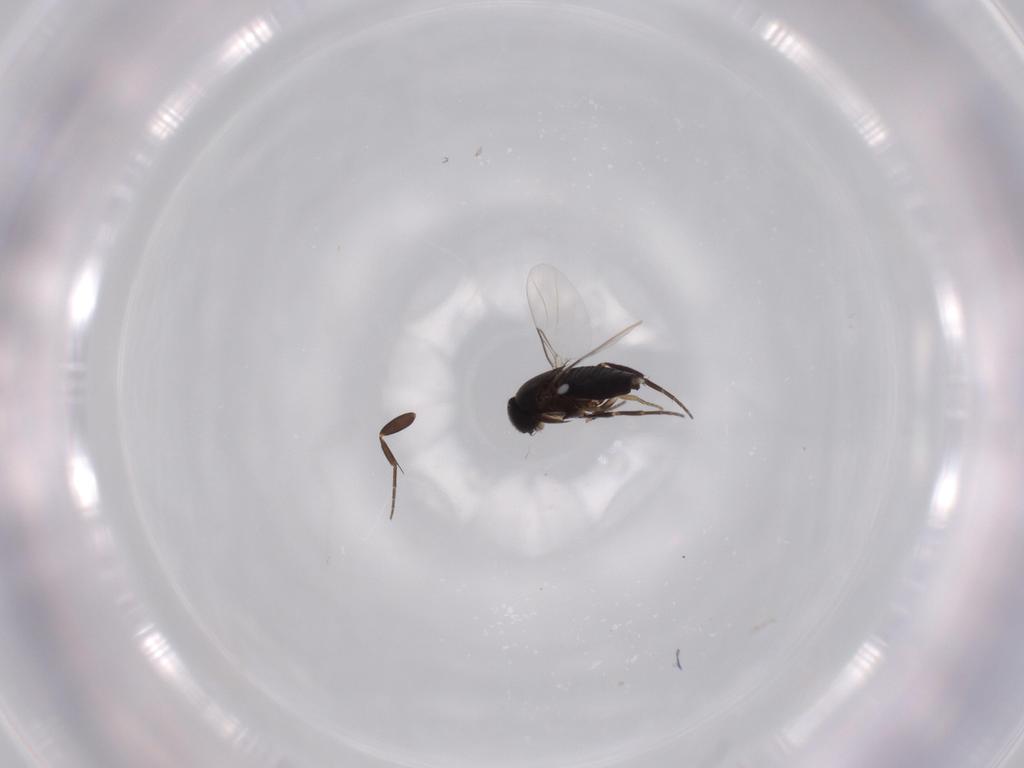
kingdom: Animalia
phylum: Arthropoda
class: Insecta
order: Diptera
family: Phoridae
